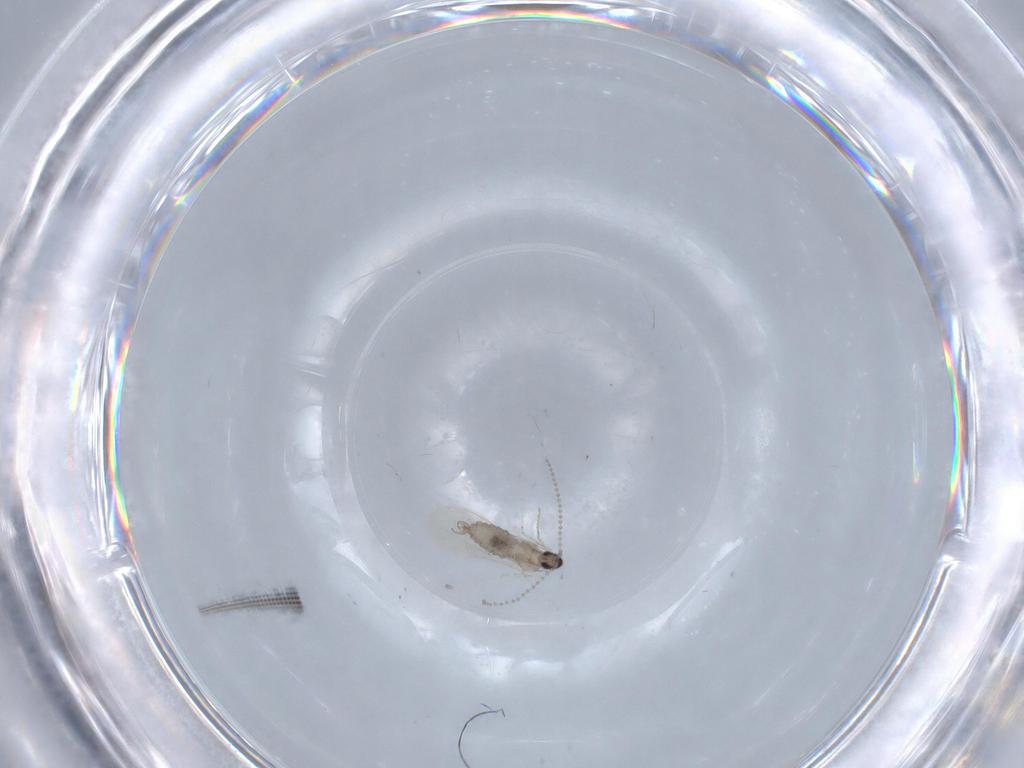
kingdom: Animalia
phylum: Arthropoda
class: Insecta
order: Diptera
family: Cecidomyiidae
